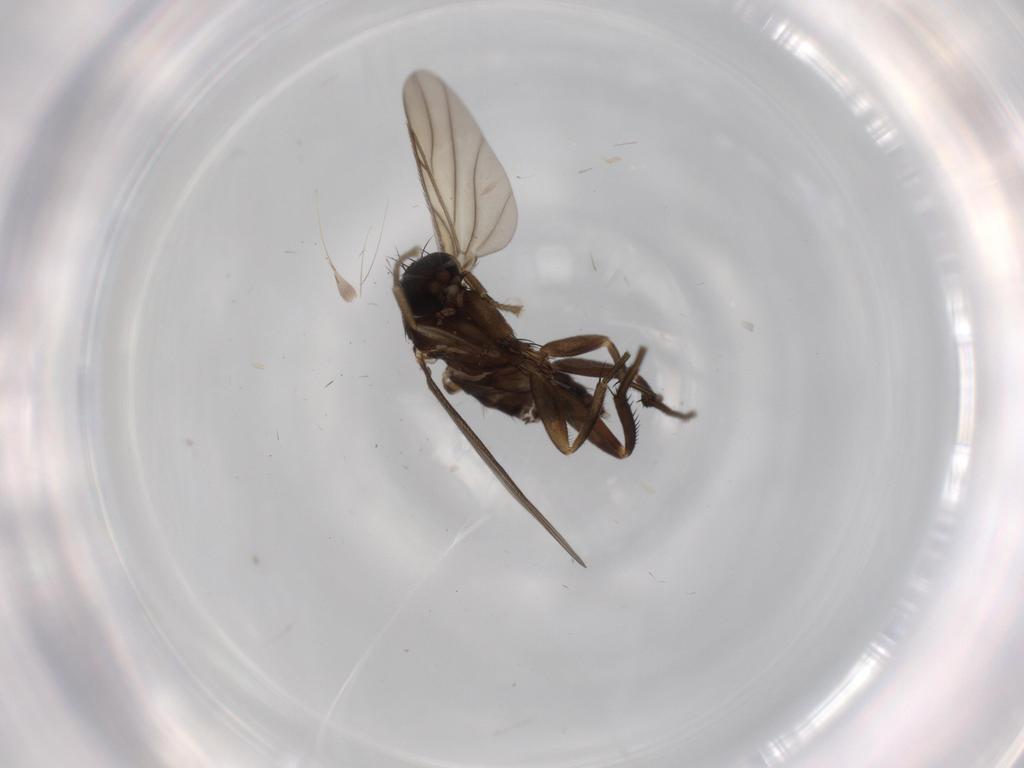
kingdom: Animalia
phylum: Arthropoda
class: Insecta
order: Diptera
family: Phoridae
